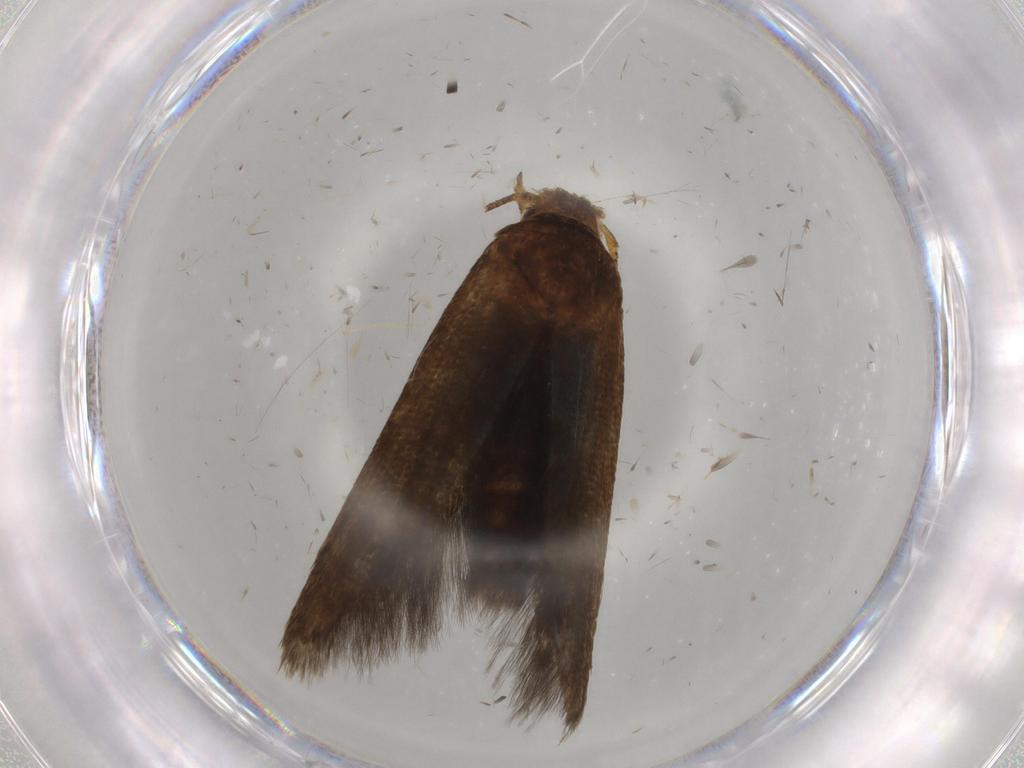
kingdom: Animalia
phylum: Arthropoda
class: Insecta
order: Lepidoptera
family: Blastobasidae
